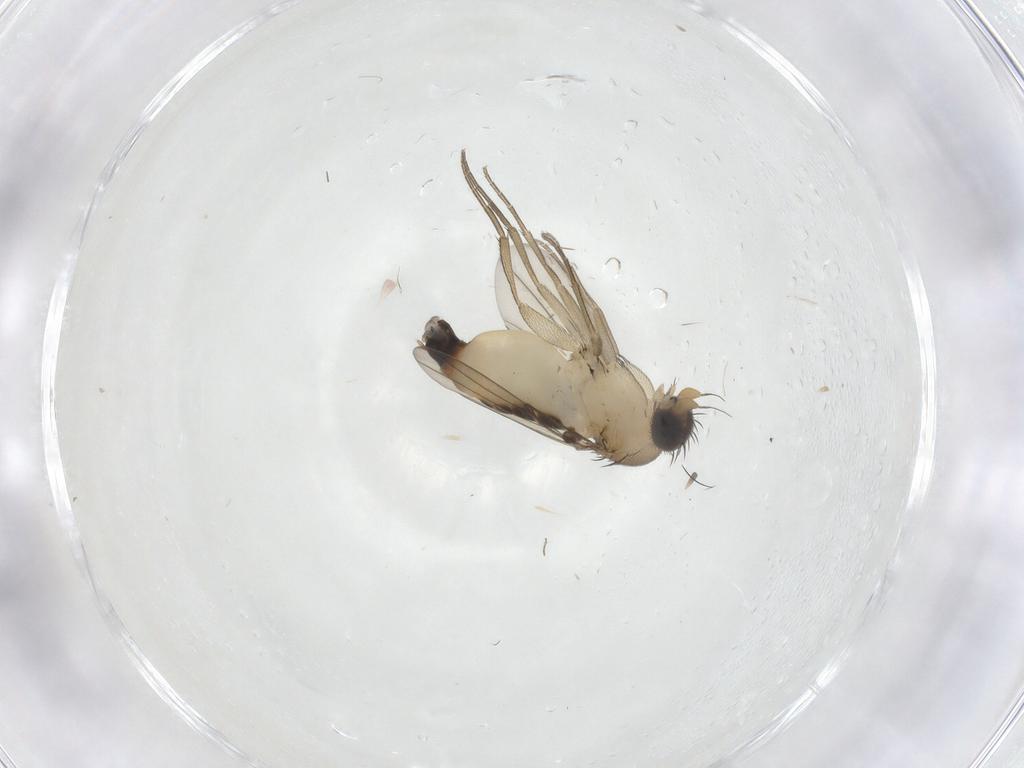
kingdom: Animalia
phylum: Arthropoda
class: Insecta
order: Diptera
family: Phoridae
